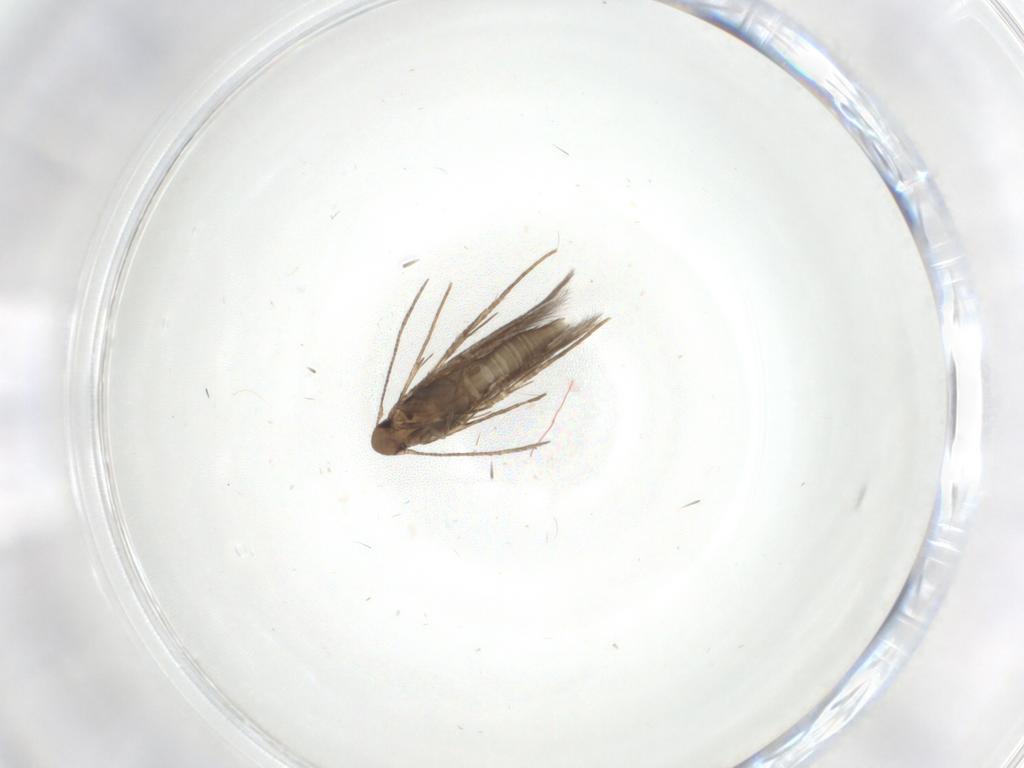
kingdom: Animalia
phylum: Arthropoda
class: Insecta
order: Lepidoptera
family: Gelechiidae
